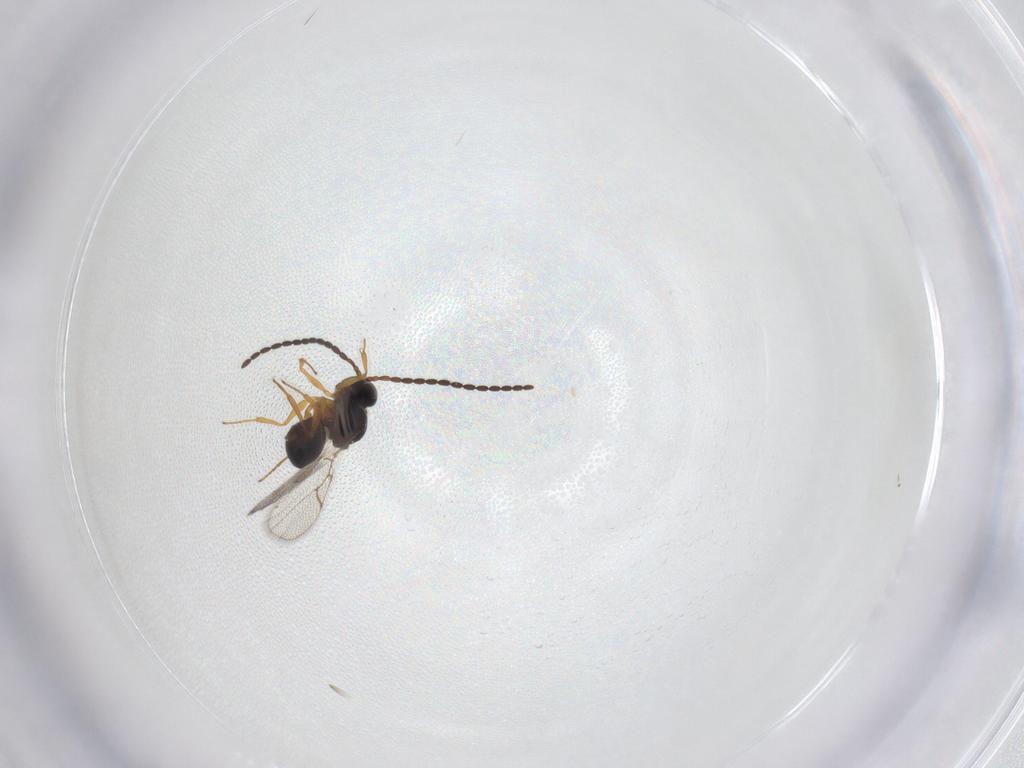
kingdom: Animalia
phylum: Arthropoda
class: Insecta
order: Hymenoptera
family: Figitidae
